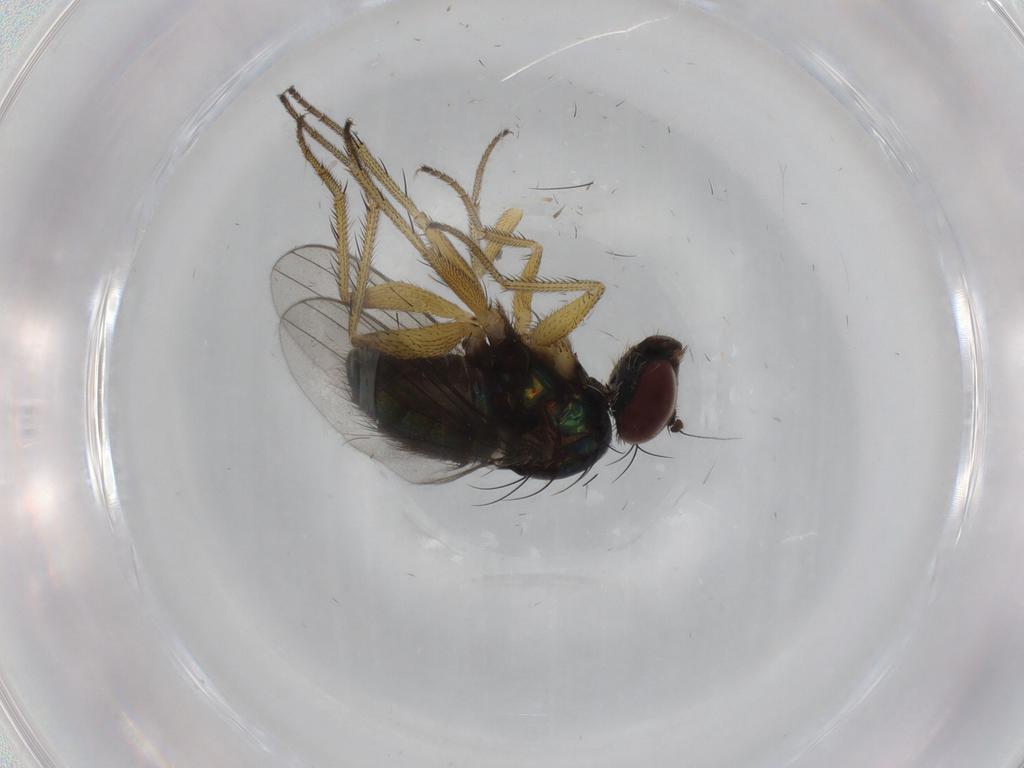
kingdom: Animalia
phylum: Arthropoda
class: Insecta
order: Diptera
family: Dolichopodidae
